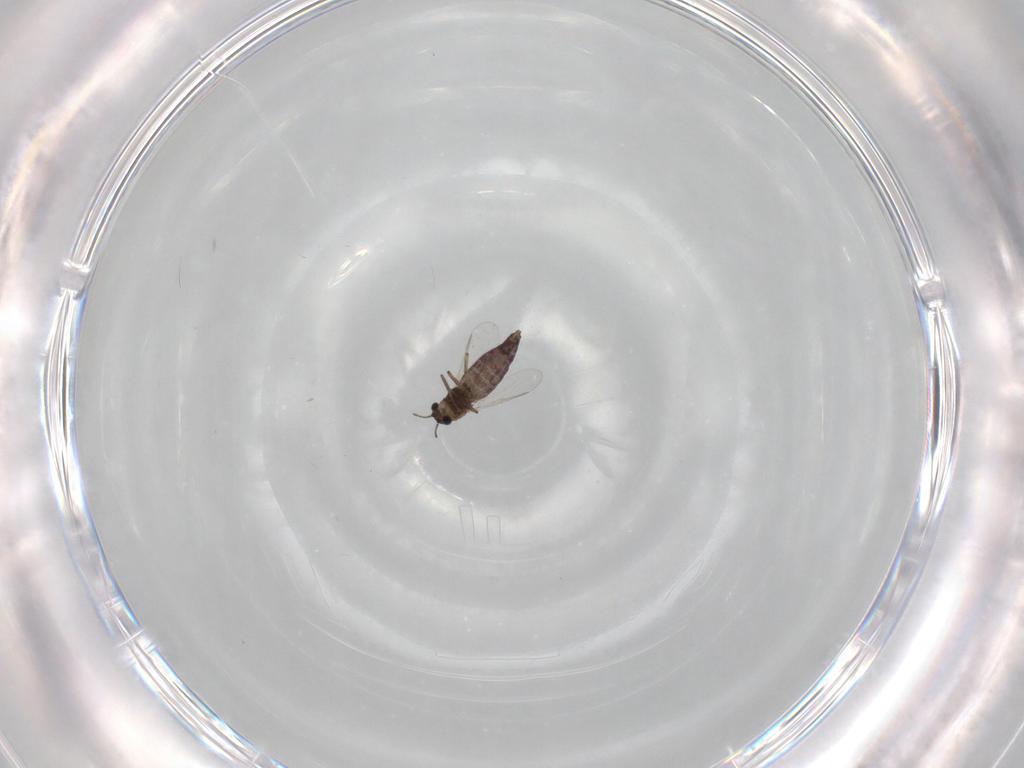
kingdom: Animalia
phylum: Arthropoda
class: Insecta
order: Diptera
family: Chironomidae
